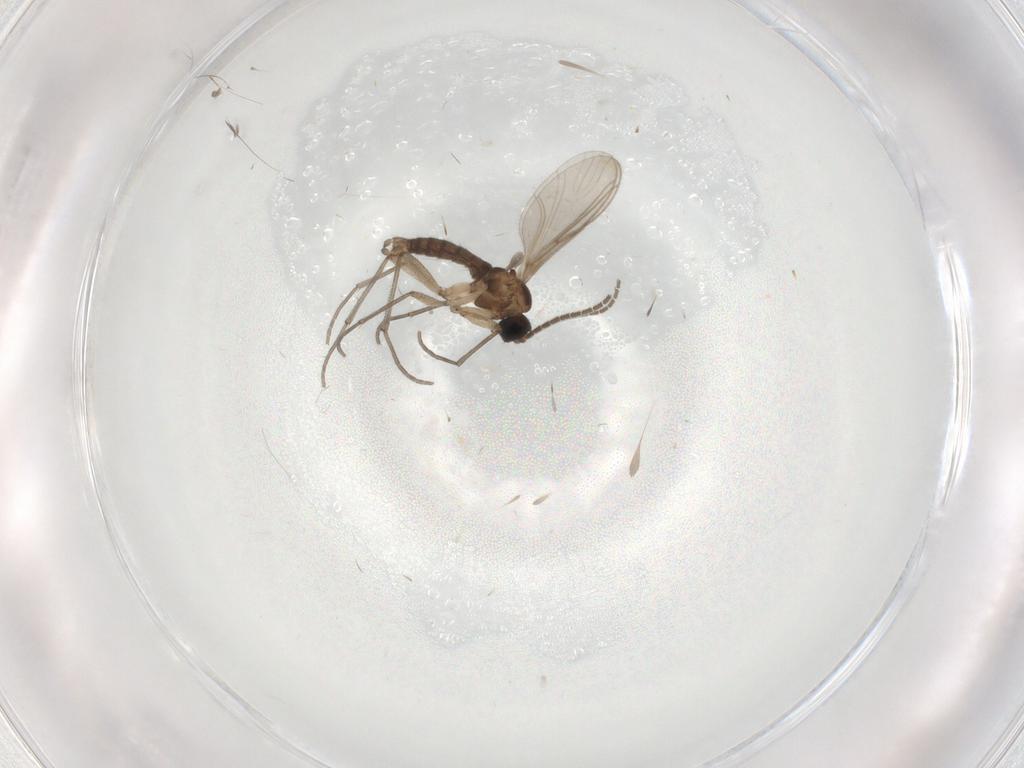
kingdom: Animalia
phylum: Arthropoda
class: Insecta
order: Diptera
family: Sciaridae
